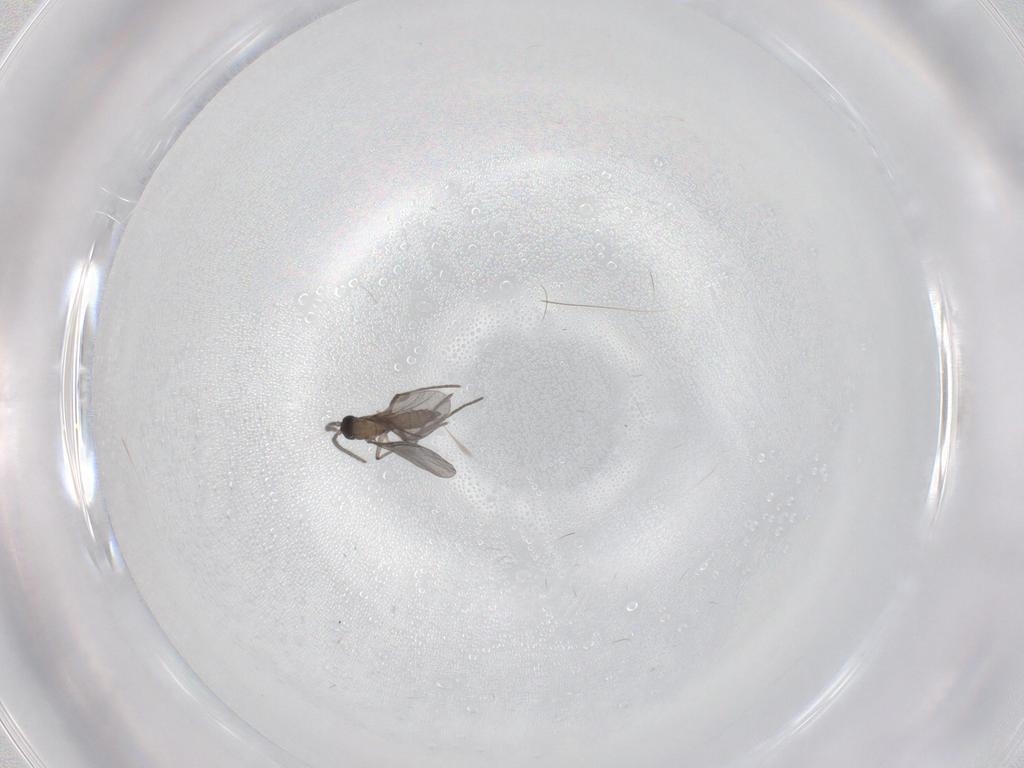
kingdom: Animalia
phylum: Arthropoda
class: Insecta
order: Diptera
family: Sciaridae
